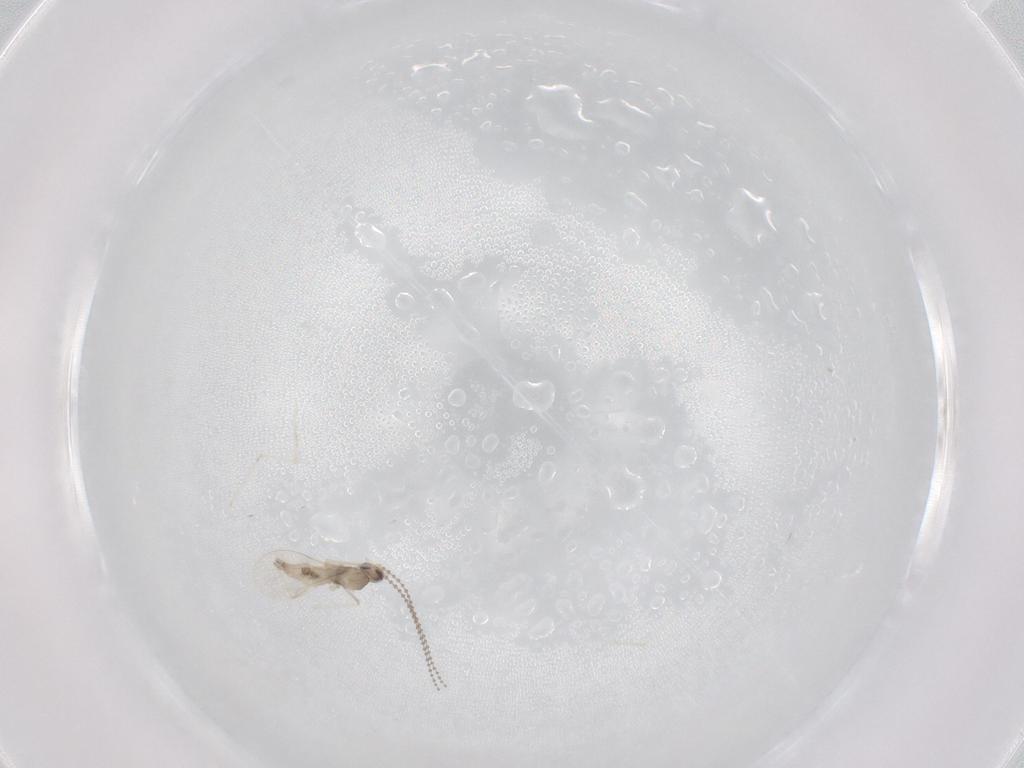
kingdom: Animalia
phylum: Arthropoda
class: Insecta
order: Diptera
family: Cecidomyiidae
